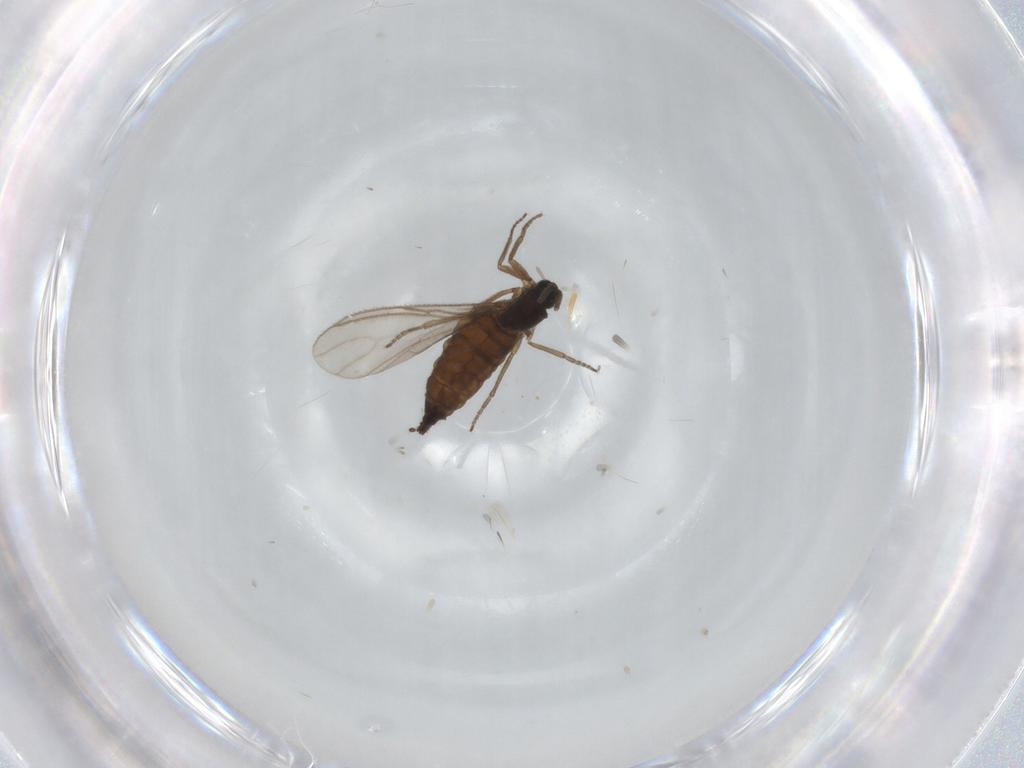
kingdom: Animalia
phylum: Arthropoda
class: Insecta
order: Diptera
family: Sciaridae
